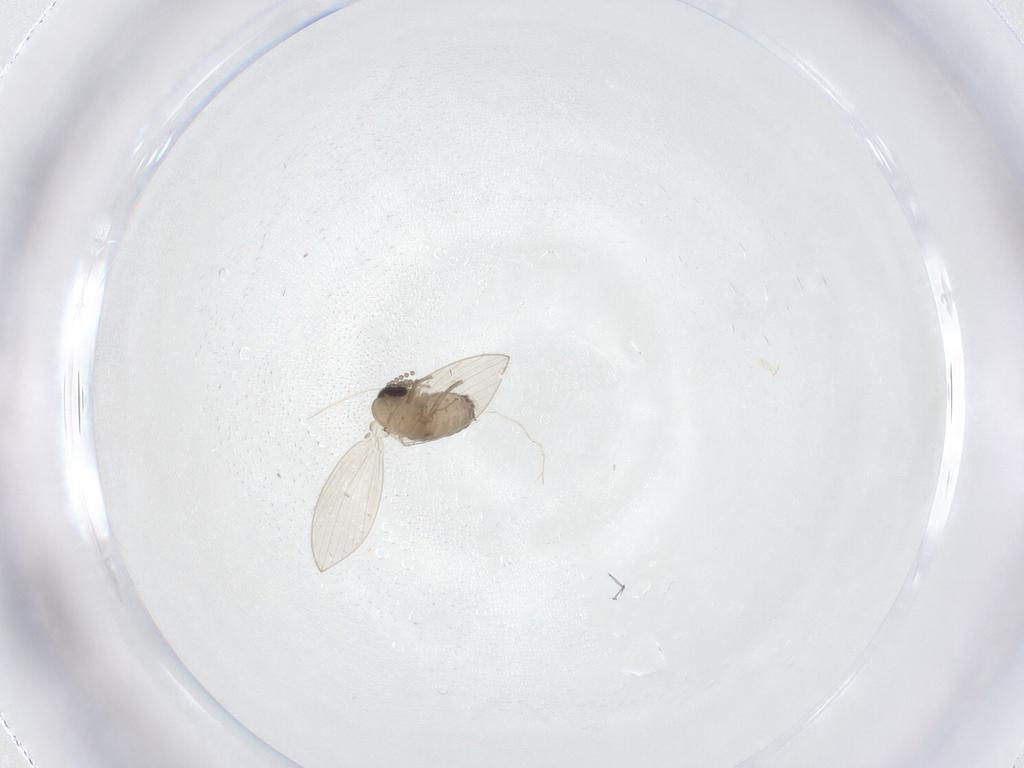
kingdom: Animalia
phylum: Arthropoda
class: Insecta
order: Diptera
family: Psychodidae
